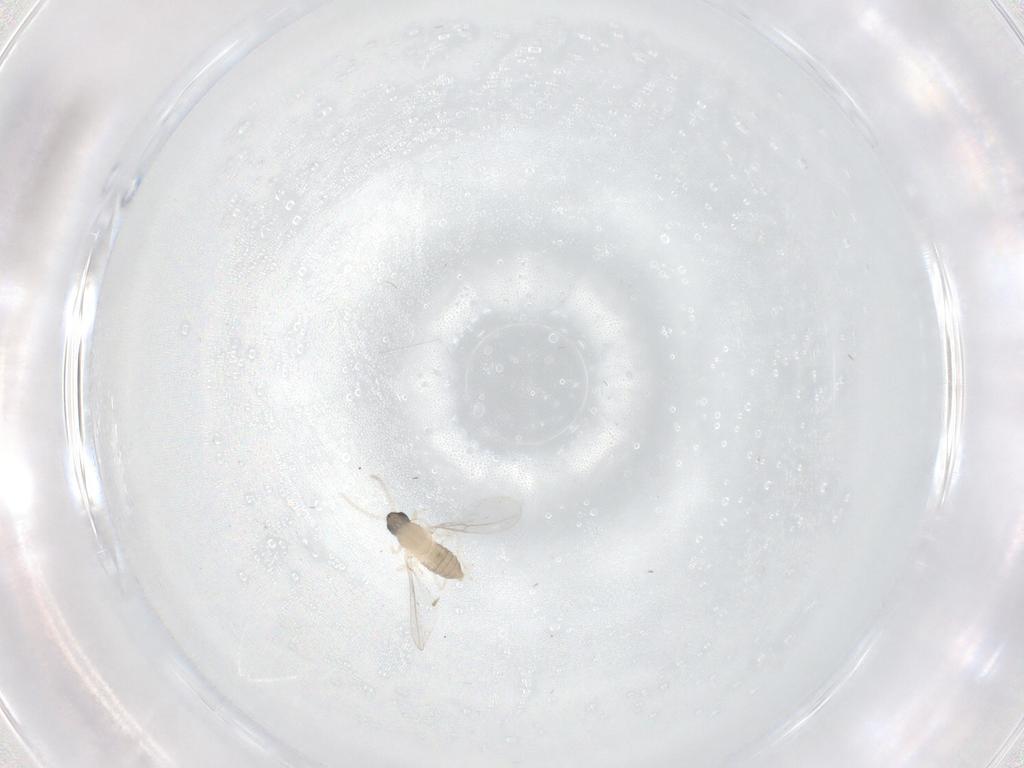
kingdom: Animalia
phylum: Arthropoda
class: Insecta
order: Diptera
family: Cecidomyiidae
